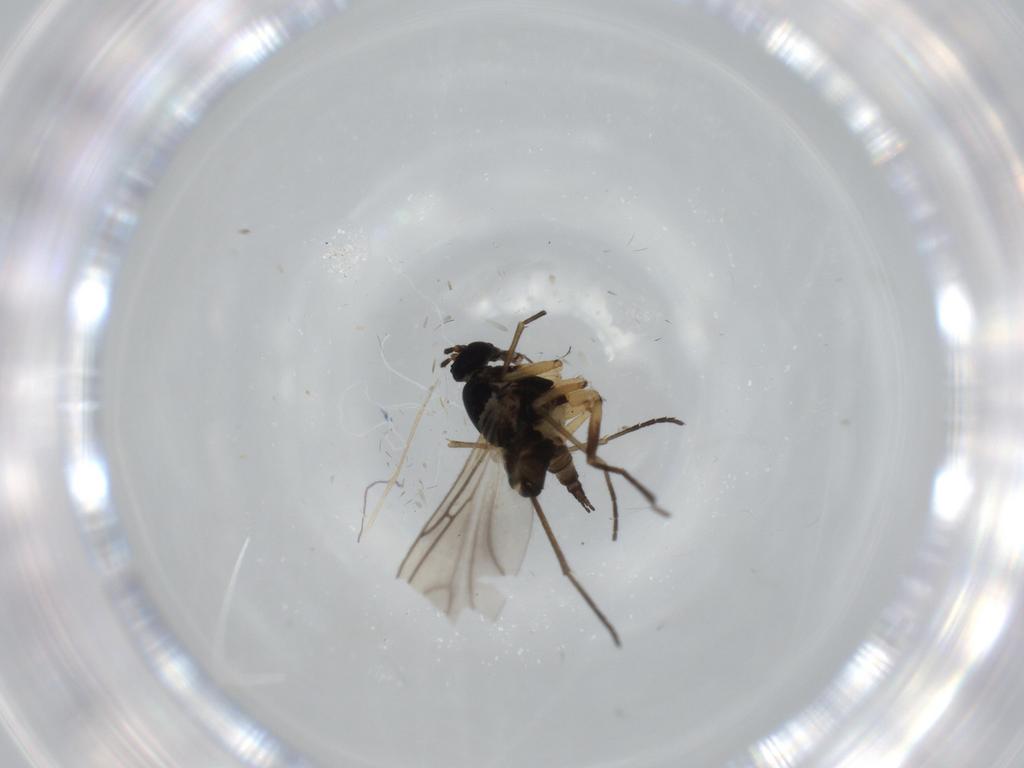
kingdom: Animalia
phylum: Arthropoda
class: Insecta
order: Diptera
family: Sciaridae
